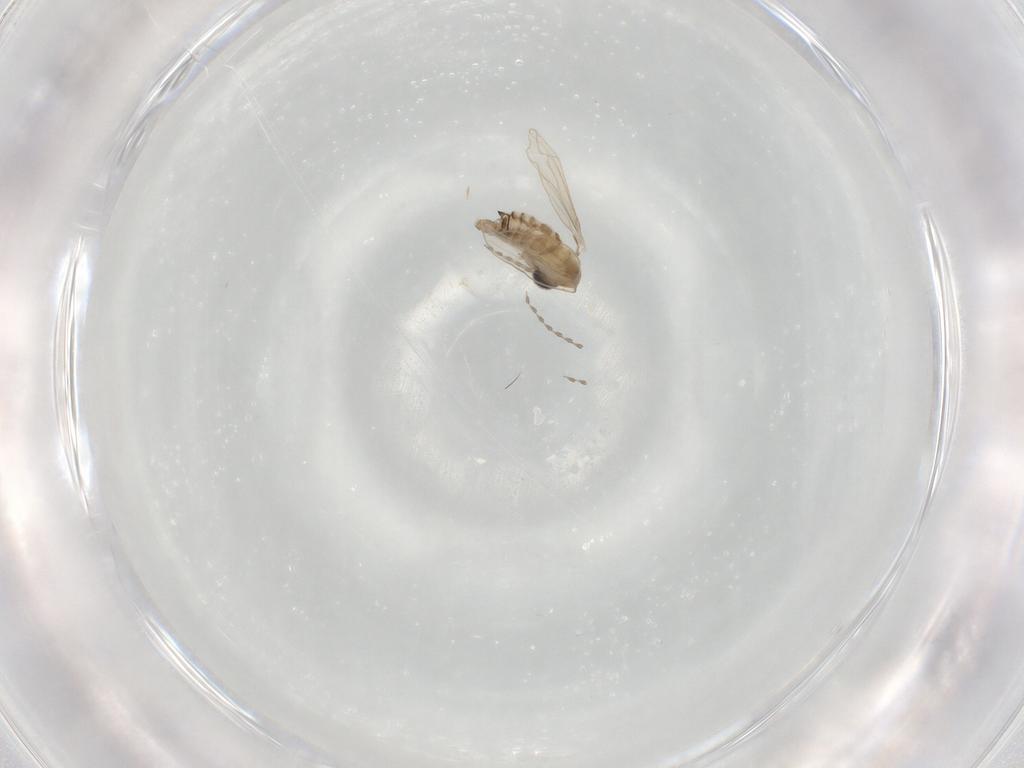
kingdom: Animalia
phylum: Arthropoda
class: Insecta
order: Diptera
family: Psychodidae
